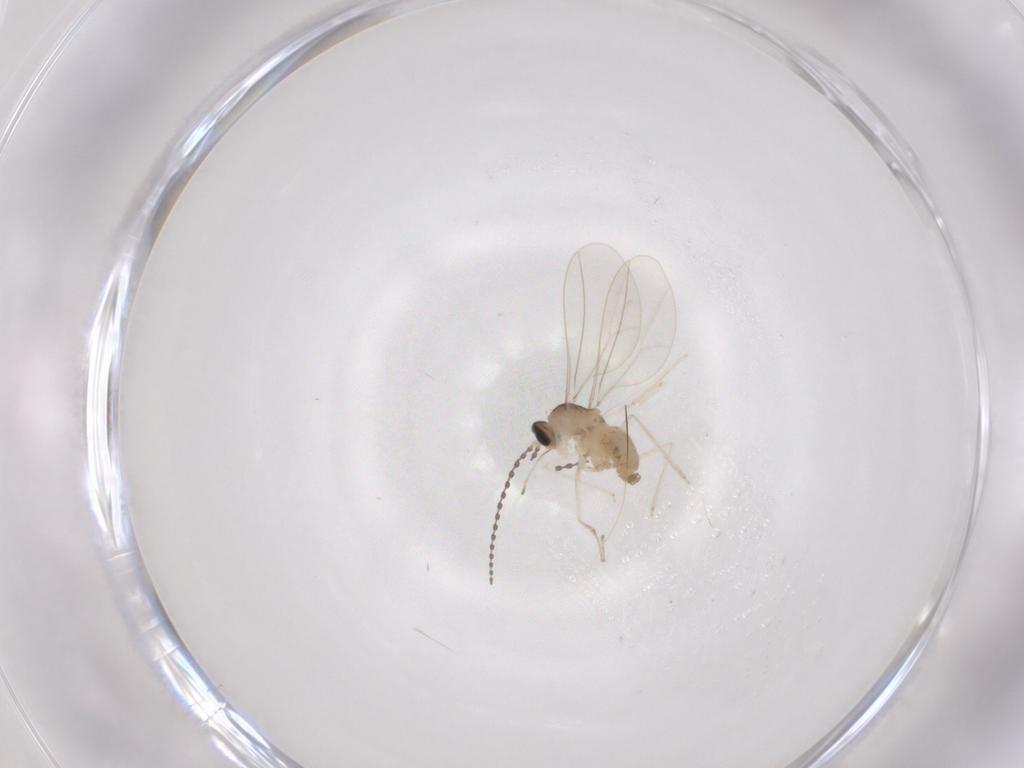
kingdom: Animalia
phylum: Arthropoda
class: Insecta
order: Diptera
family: Cecidomyiidae
